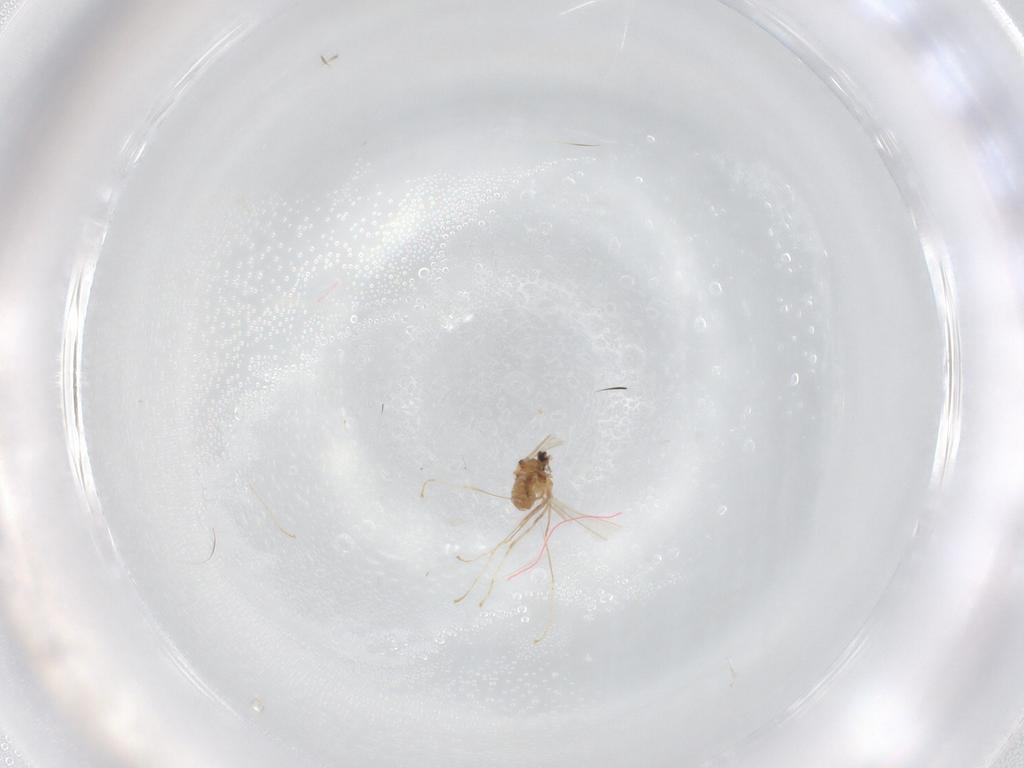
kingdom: Animalia
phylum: Arthropoda
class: Insecta
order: Diptera
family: Cecidomyiidae
